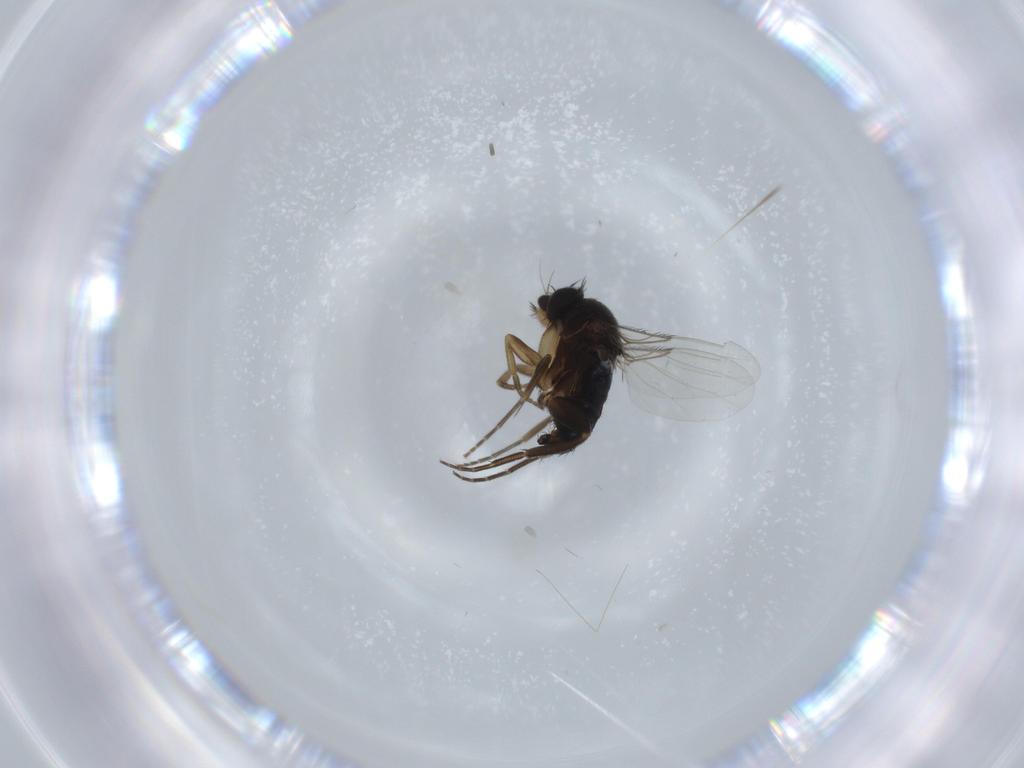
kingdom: Animalia
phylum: Arthropoda
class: Insecta
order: Diptera
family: Phoridae
